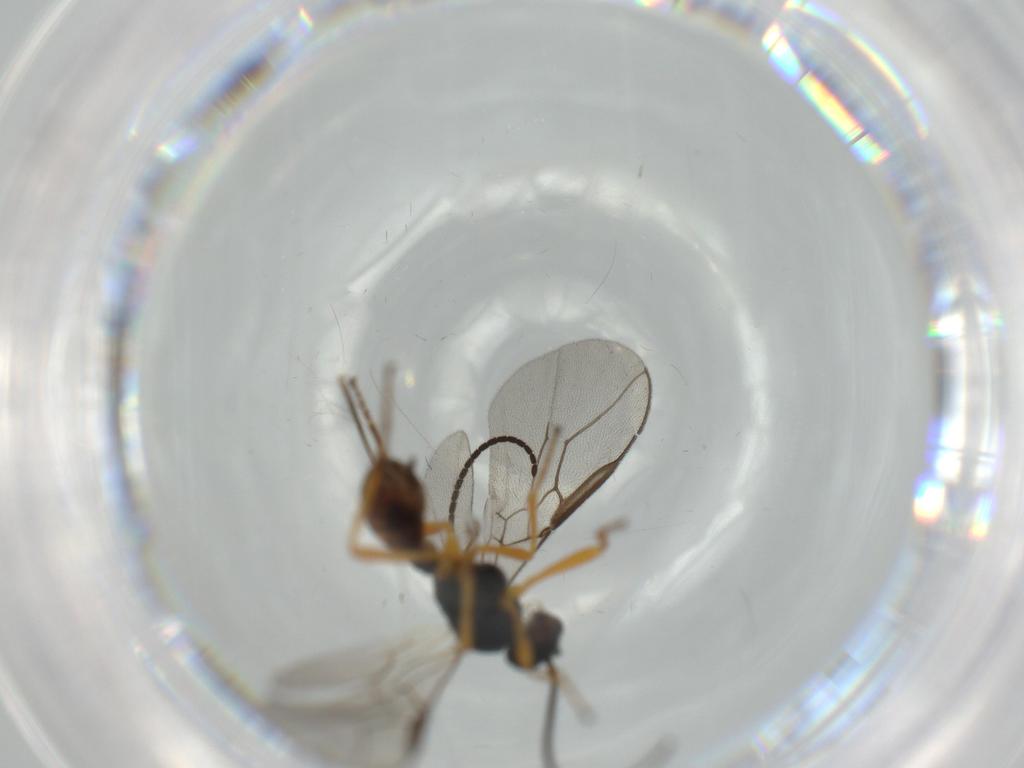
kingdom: Animalia
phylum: Arthropoda
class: Insecta
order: Hymenoptera
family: Braconidae
